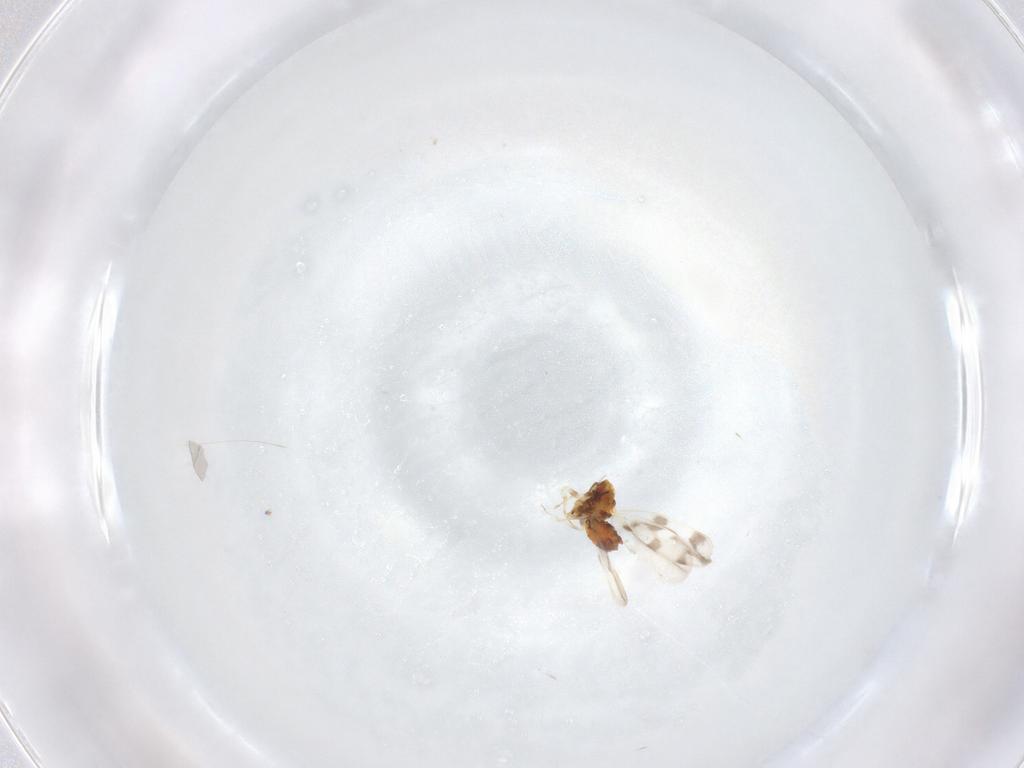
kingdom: Animalia
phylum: Arthropoda
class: Insecta
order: Hemiptera
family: Aleyrodidae
